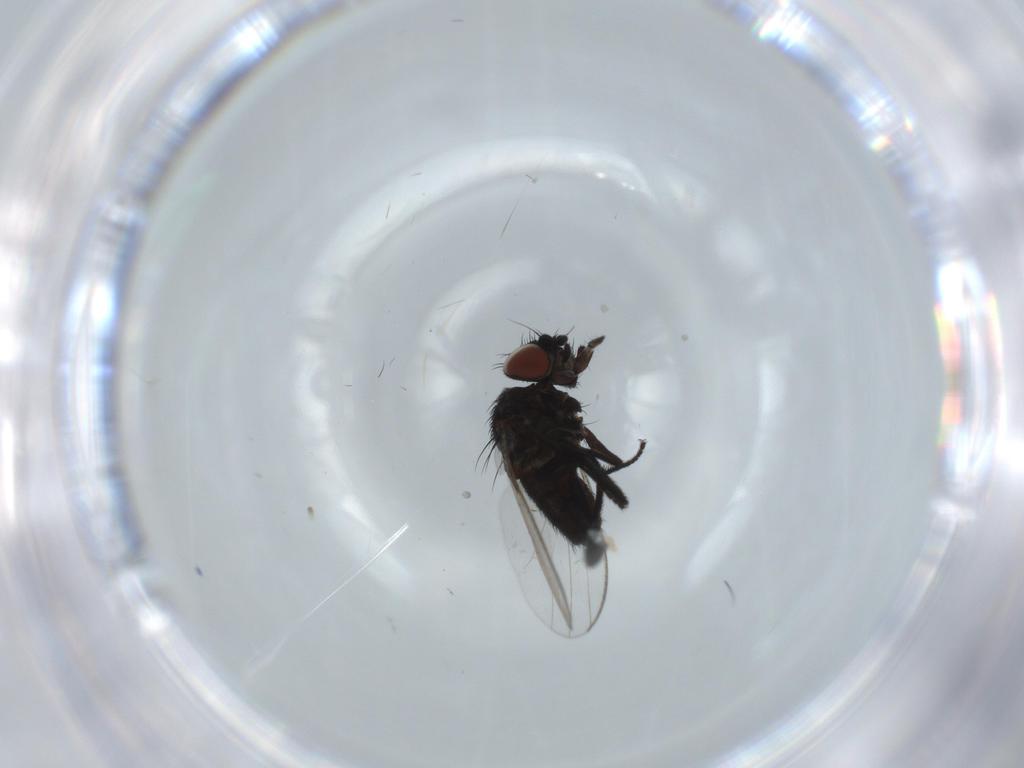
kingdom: Animalia
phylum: Arthropoda
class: Insecta
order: Diptera
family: Milichiidae
